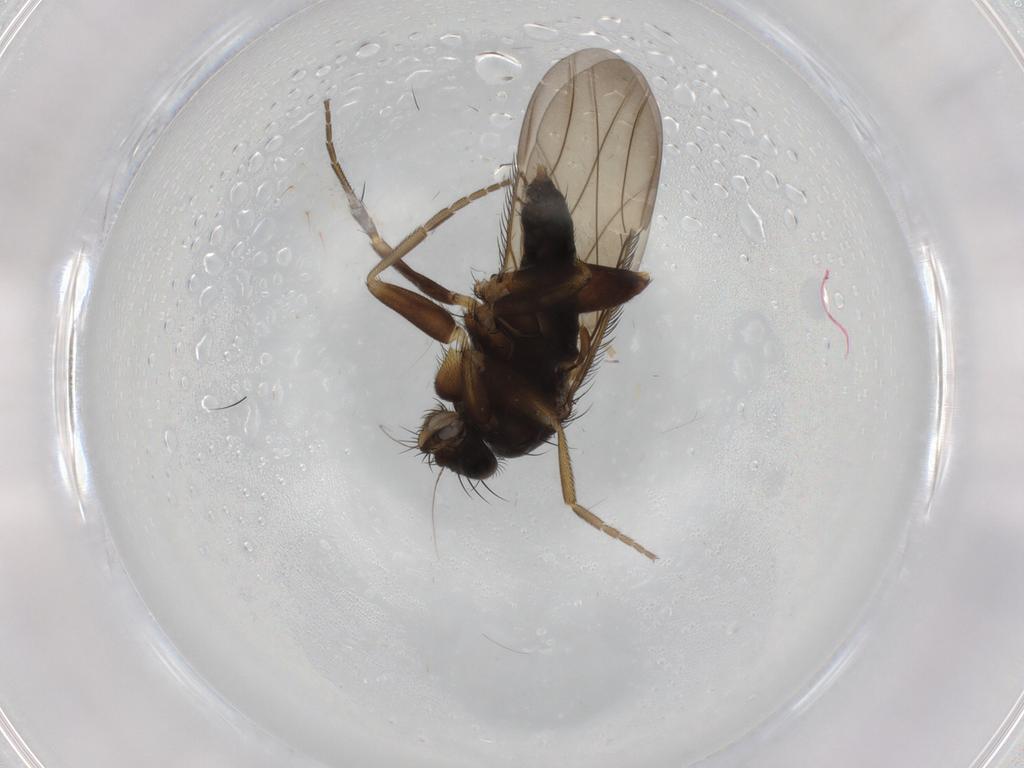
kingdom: Animalia
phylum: Arthropoda
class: Insecta
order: Diptera
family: Phoridae
